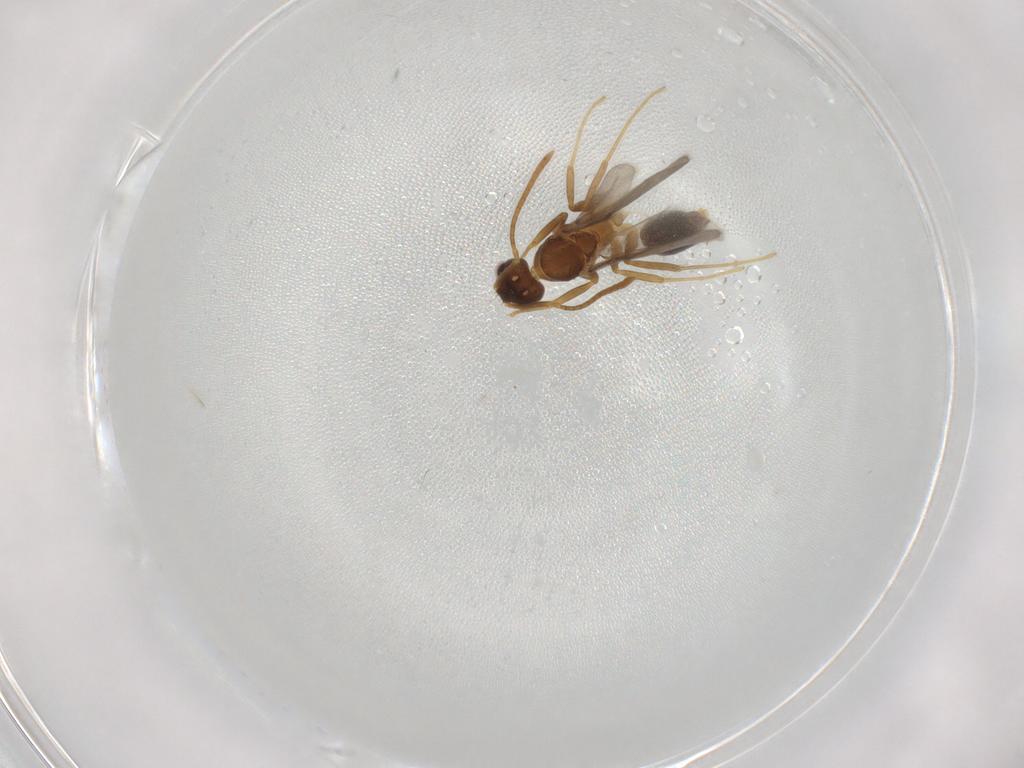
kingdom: Animalia
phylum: Arthropoda
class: Insecta
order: Hymenoptera
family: Formicidae
